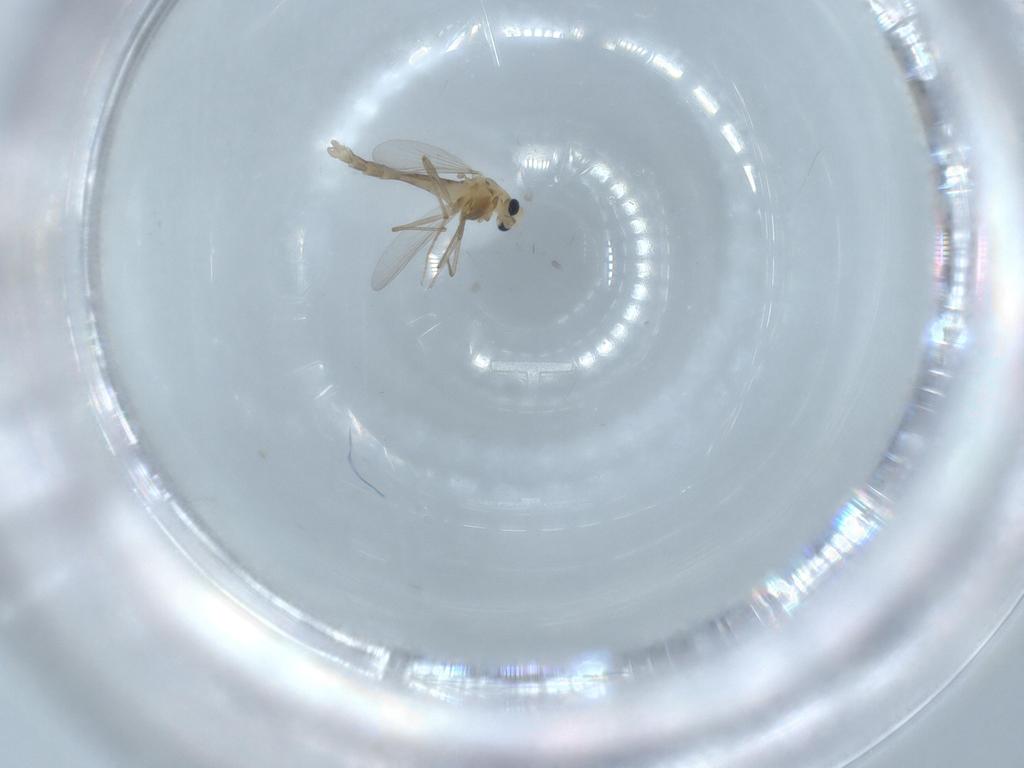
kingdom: Animalia
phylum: Arthropoda
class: Insecta
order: Diptera
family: Chironomidae
